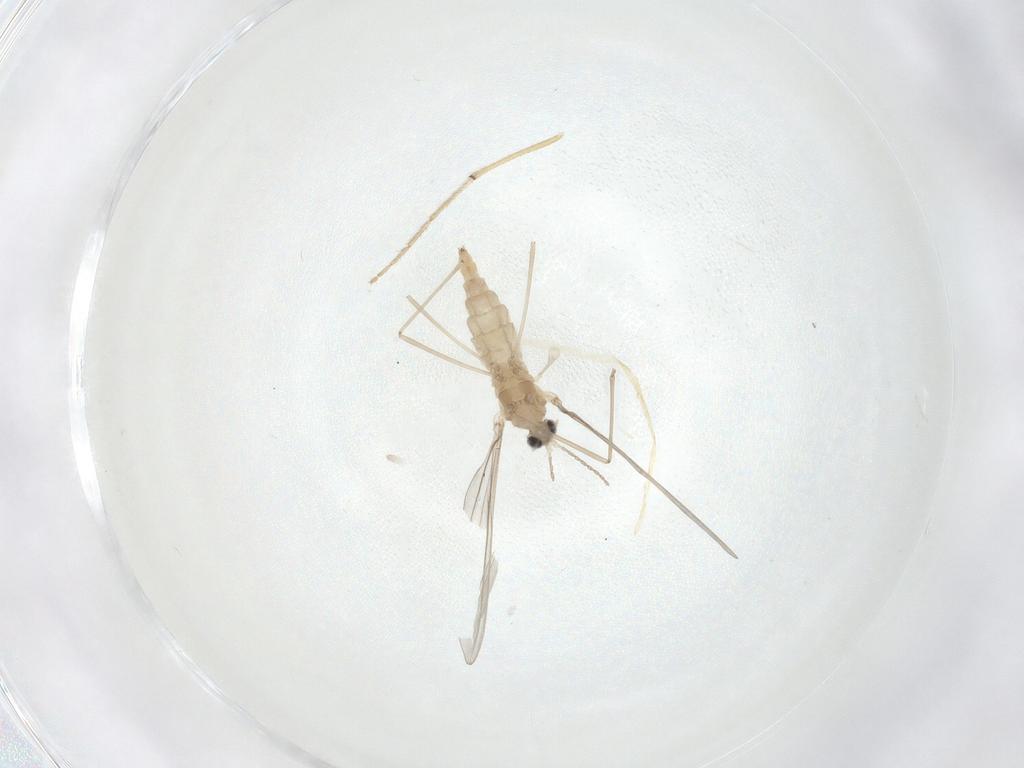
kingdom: Animalia
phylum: Arthropoda
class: Insecta
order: Diptera
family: Chironomidae
